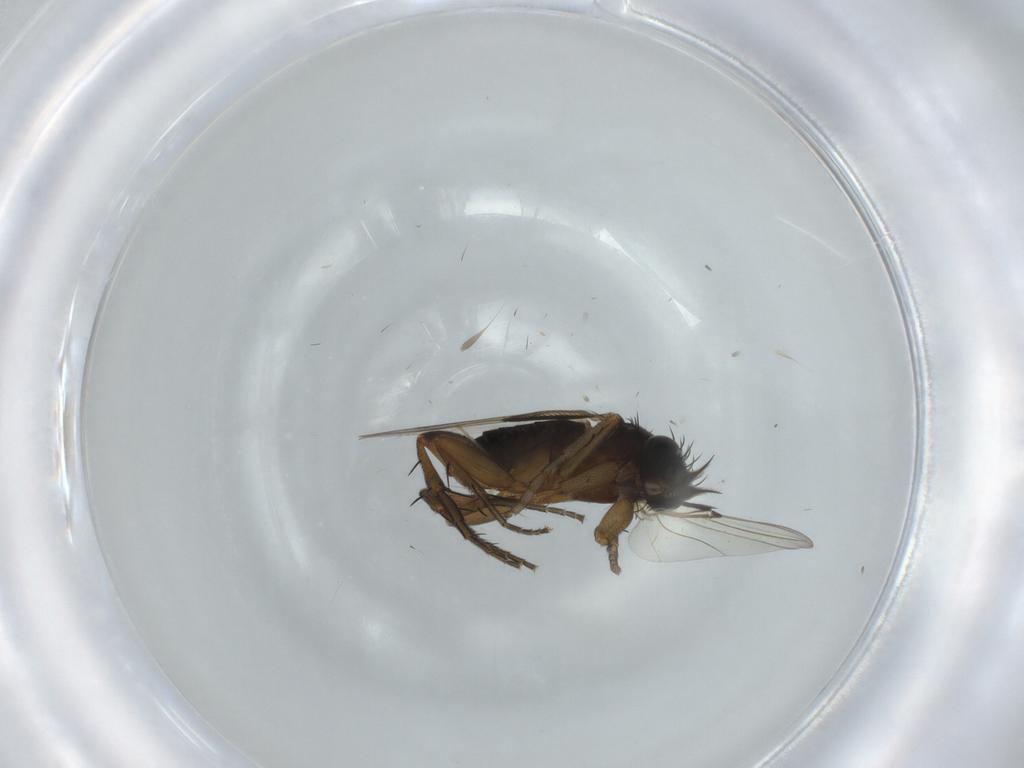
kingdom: Animalia
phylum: Arthropoda
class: Insecta
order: Diptera
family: Phoridae
